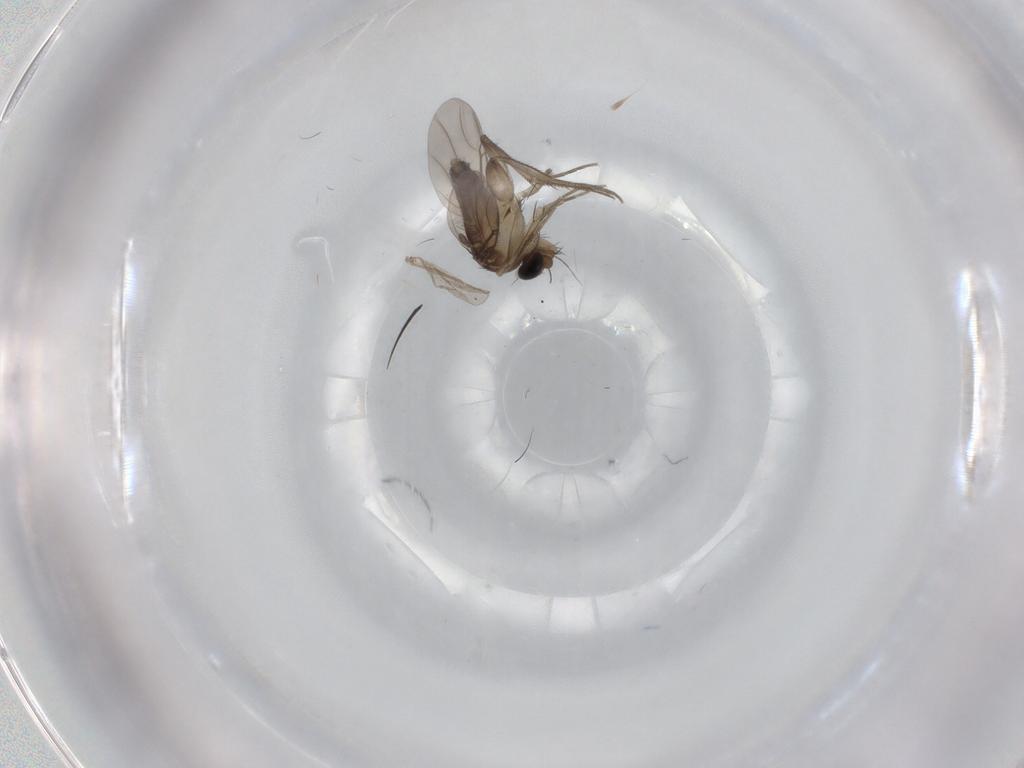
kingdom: Animalia
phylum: Arthropoda
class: Insecta
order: Diptera
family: Phoridae
